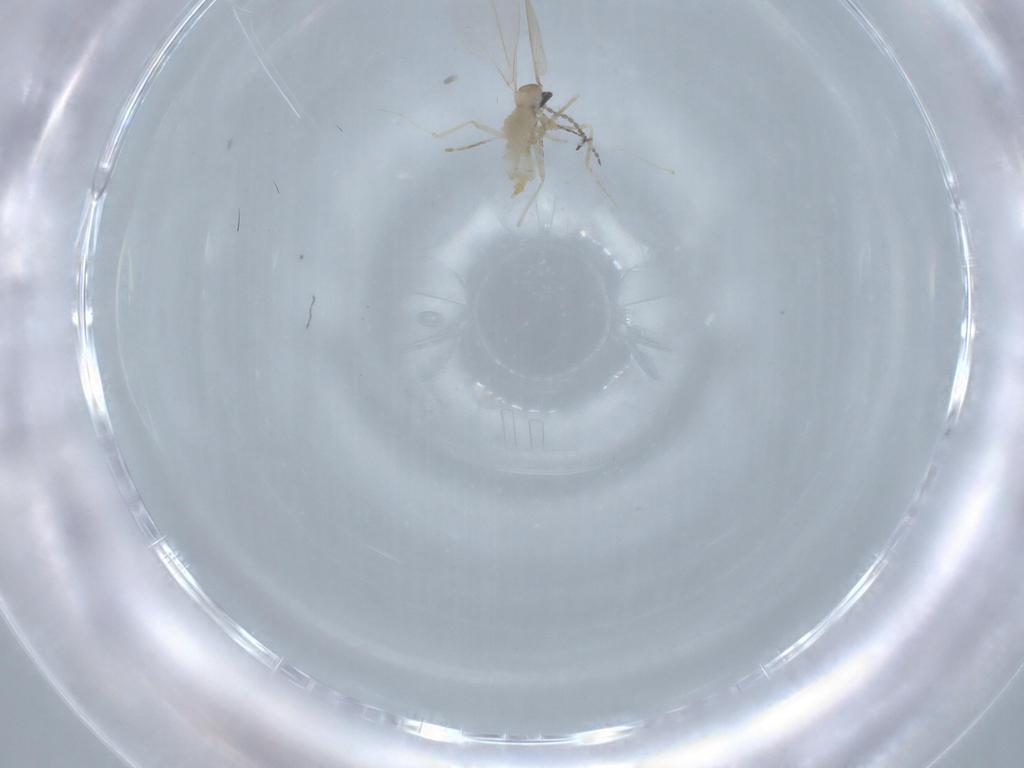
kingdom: Animalia
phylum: Arthropoda
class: Insecta
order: Diptera
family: Cecidomyiidae
